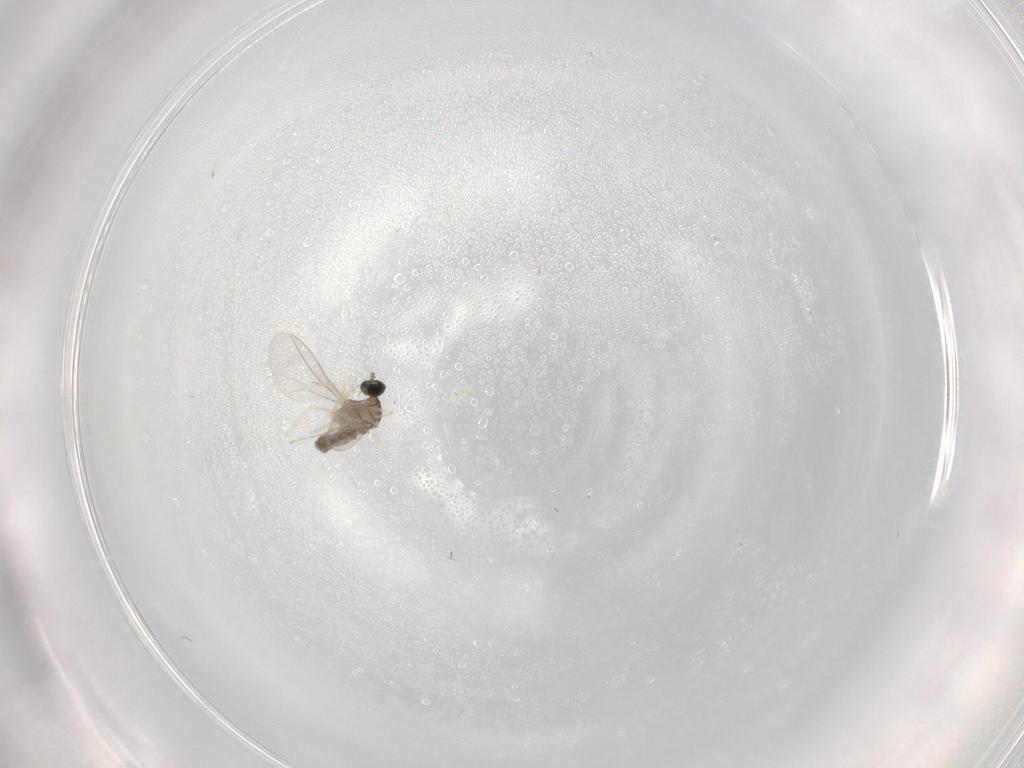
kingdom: Animalia
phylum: Arthropoda
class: Insecta
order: Diptera
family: Cecidomyiidae
